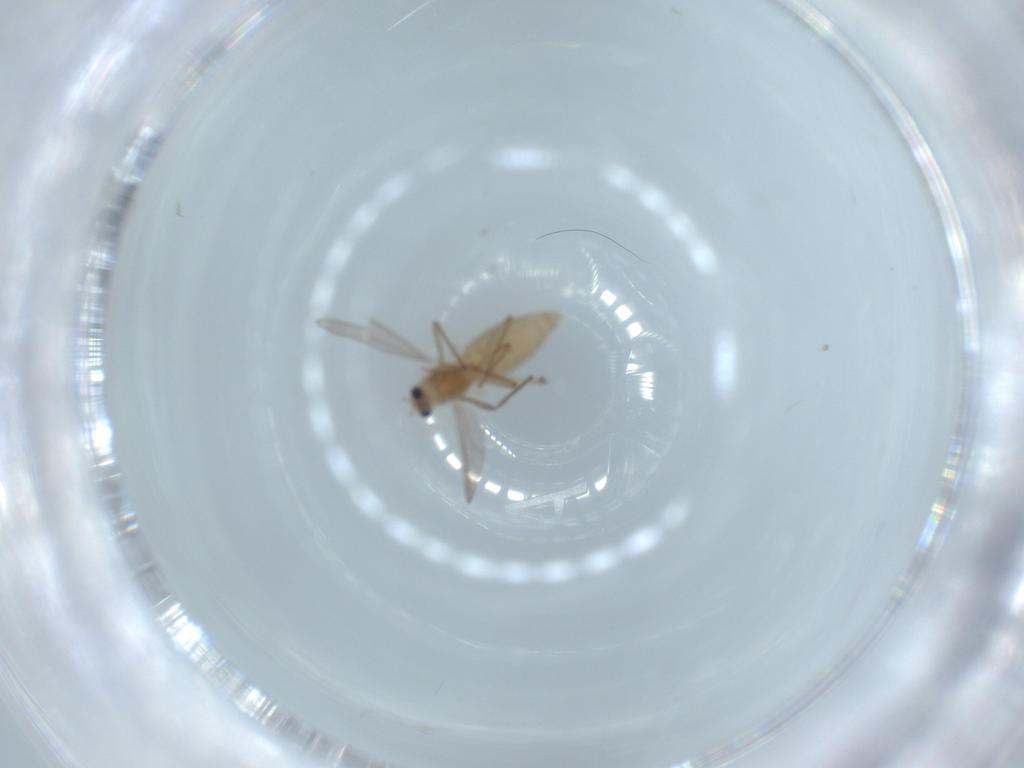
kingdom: Animalia
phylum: Arthropoda
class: Insecta
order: Diptera
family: Chironomidae
